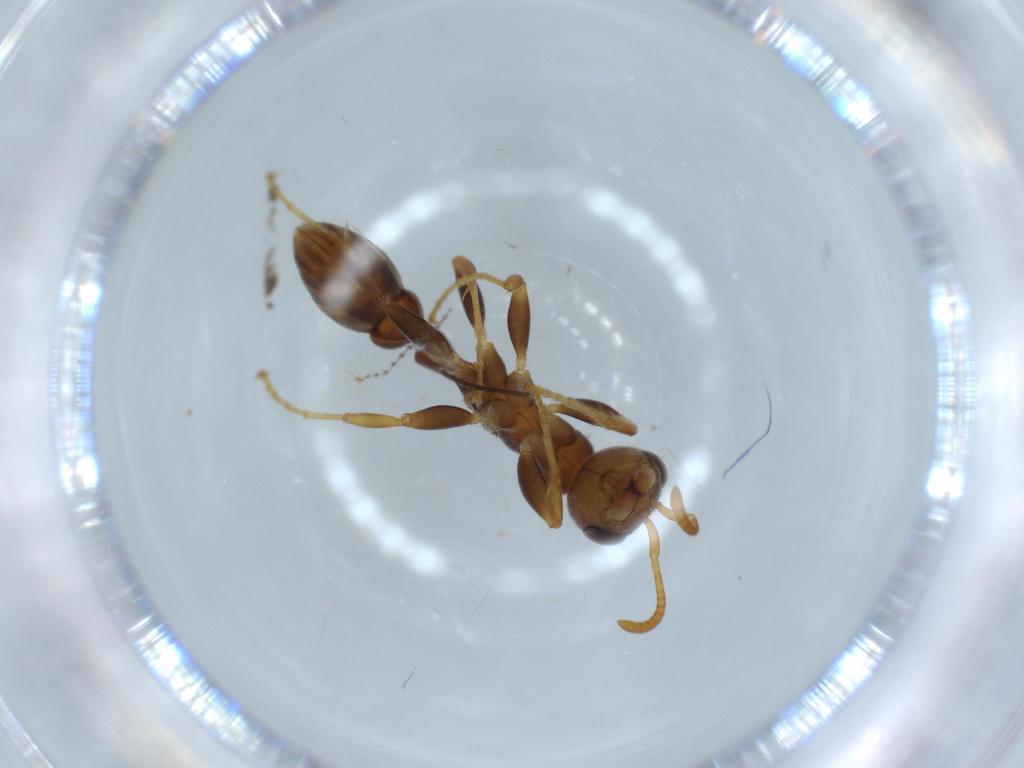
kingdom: Animalia
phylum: Arthropoda
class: Insecta
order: Hymenoptera
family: Formicidae
